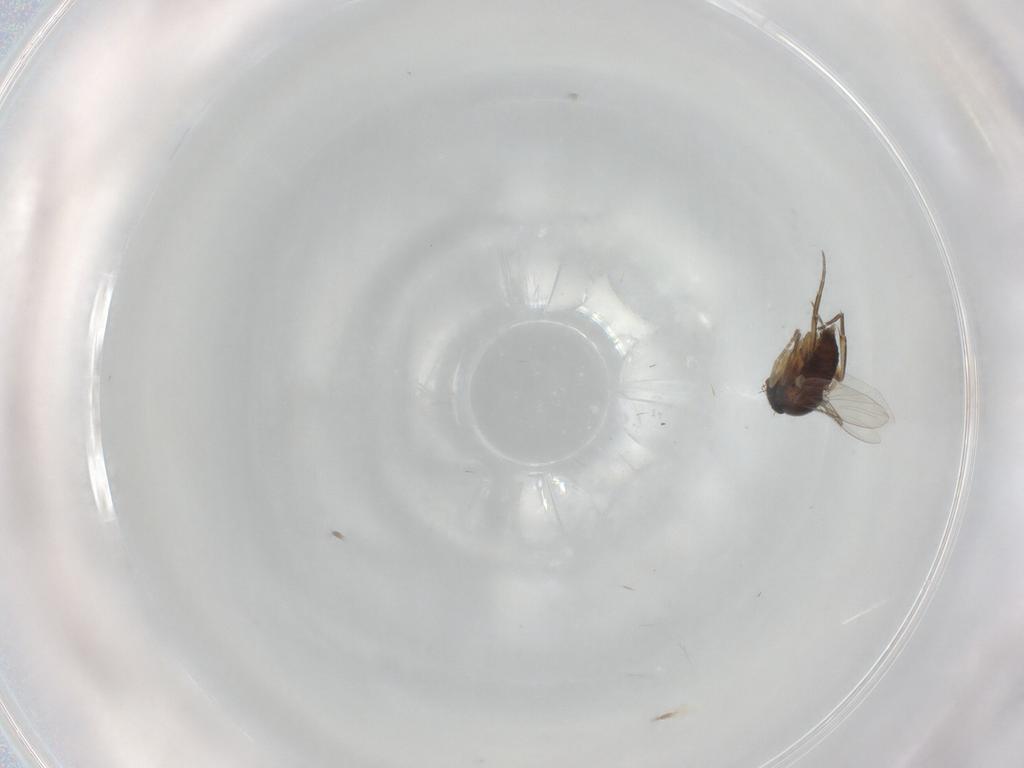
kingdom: Animalia
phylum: Arthropoda
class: Insecta
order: Diptera
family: Phoridae
